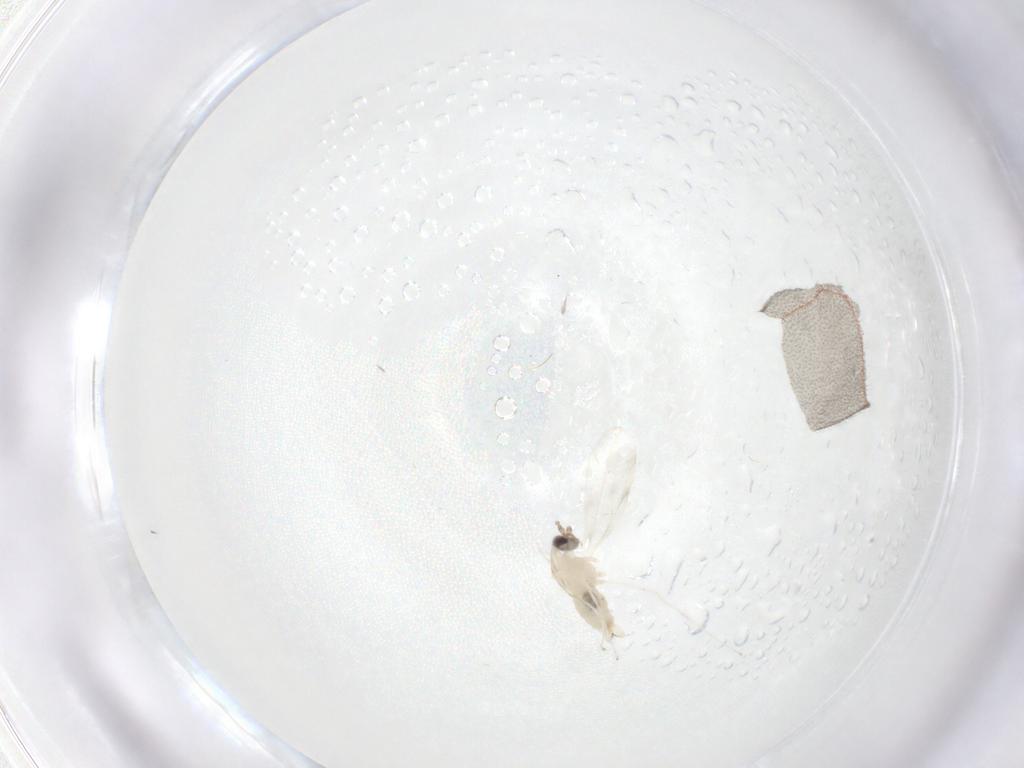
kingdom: Animalia
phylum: Arthropoda
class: Insecta
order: Diptera
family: Cecidomyiidae
